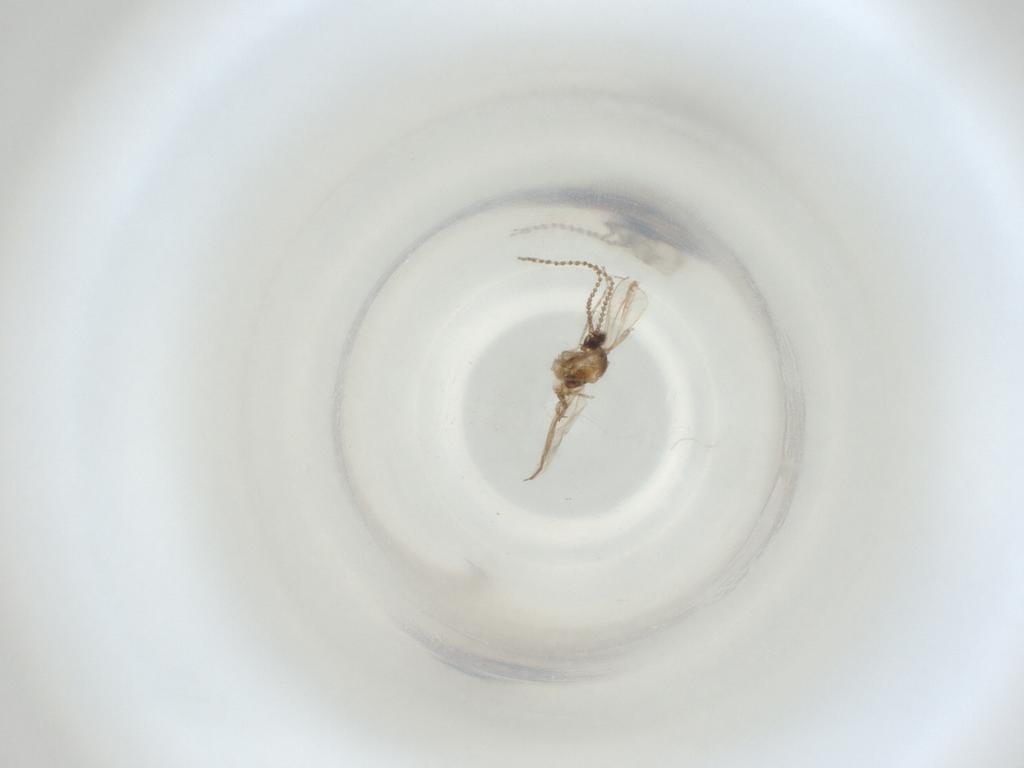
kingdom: Animalia
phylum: Arthropoda
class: Insecta
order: Diptera
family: Cecidomyiidae
